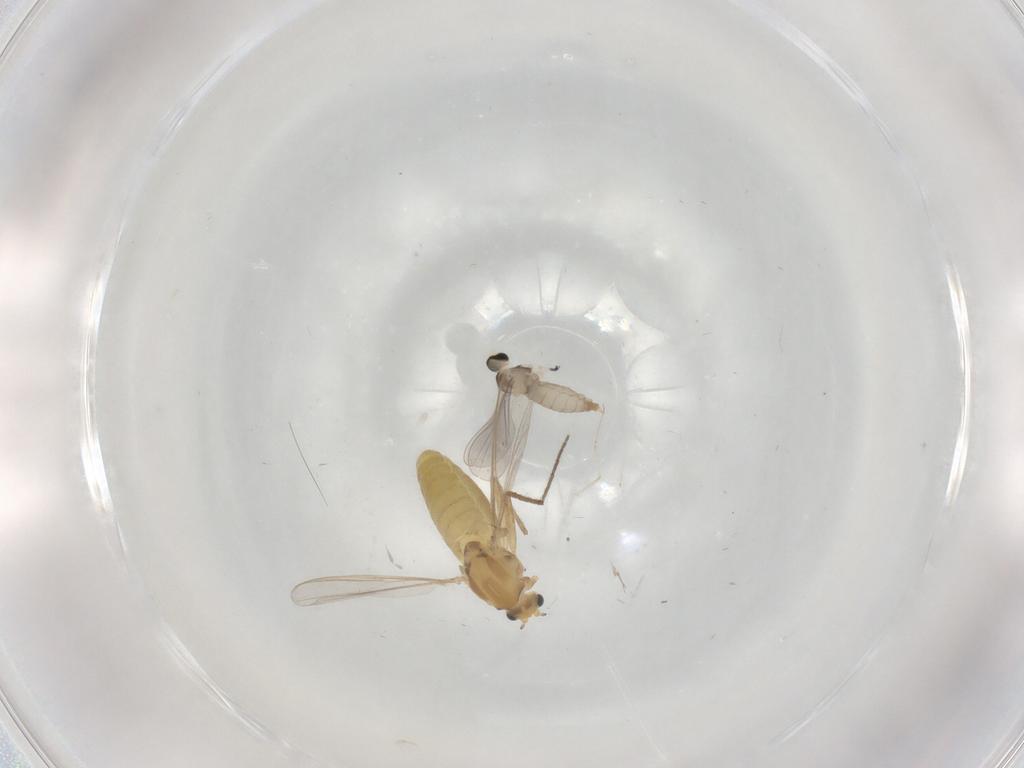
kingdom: Animalia
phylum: Arthropoda
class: Insecta
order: Diptera
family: Chironomidae
